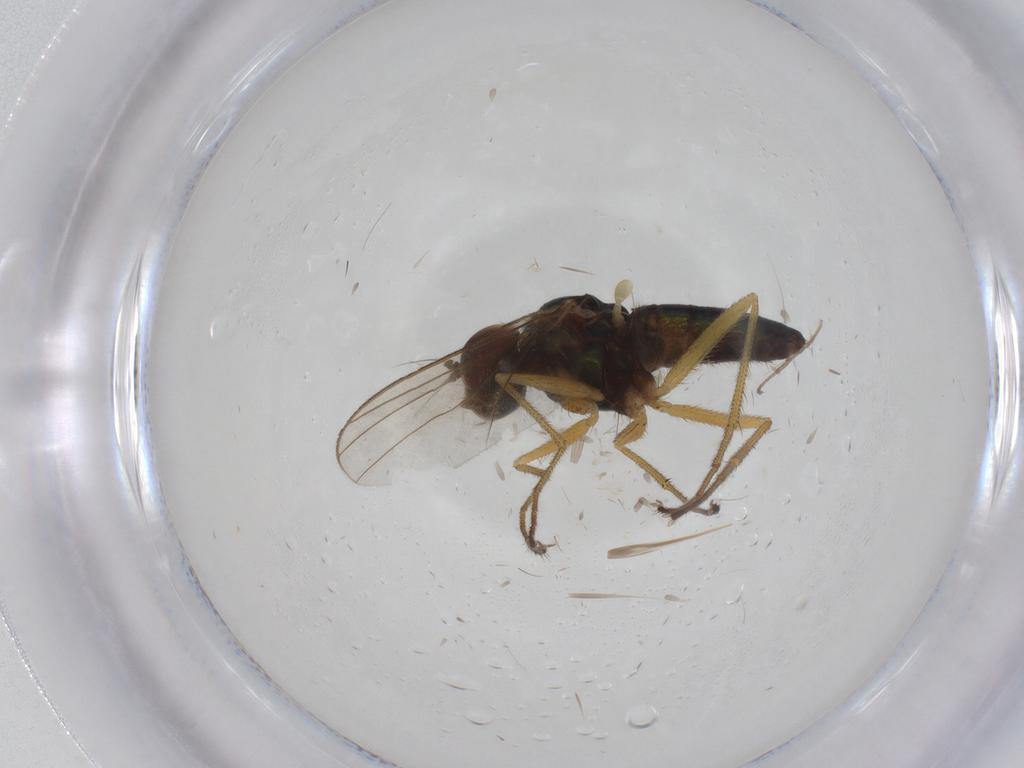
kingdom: Animalia
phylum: Arthropoda
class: Insecta
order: Diptera
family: Dolichopodidae
